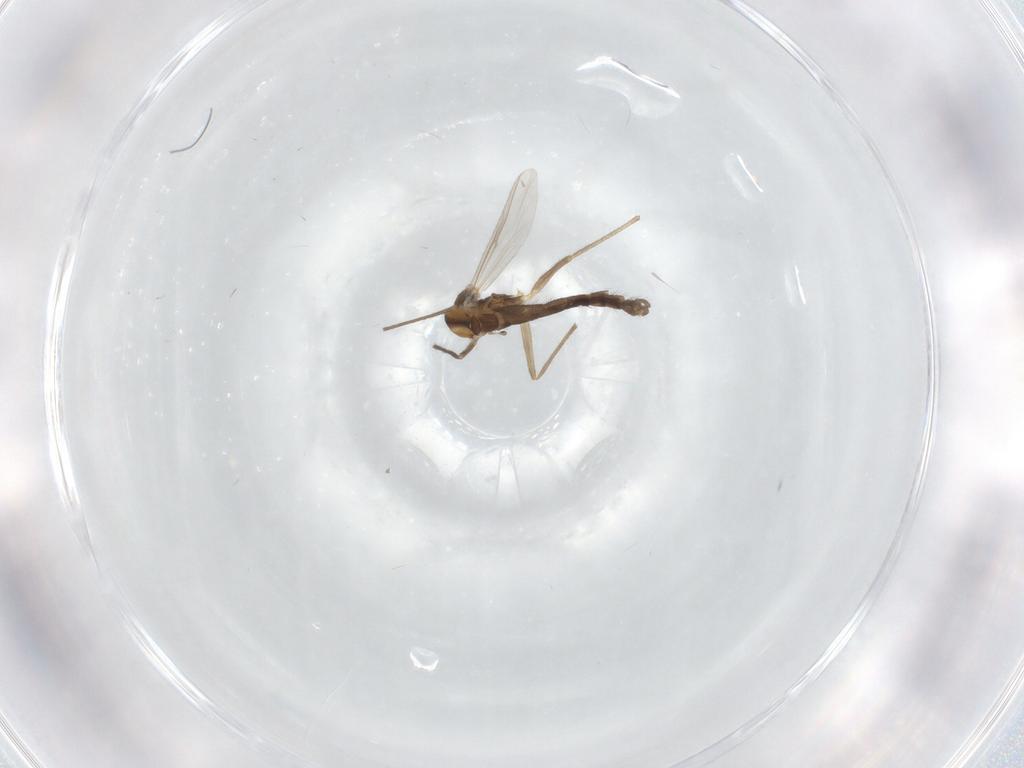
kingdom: Animalia
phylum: Arthropoda
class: Insecta
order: Diptera
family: Chironomidae
